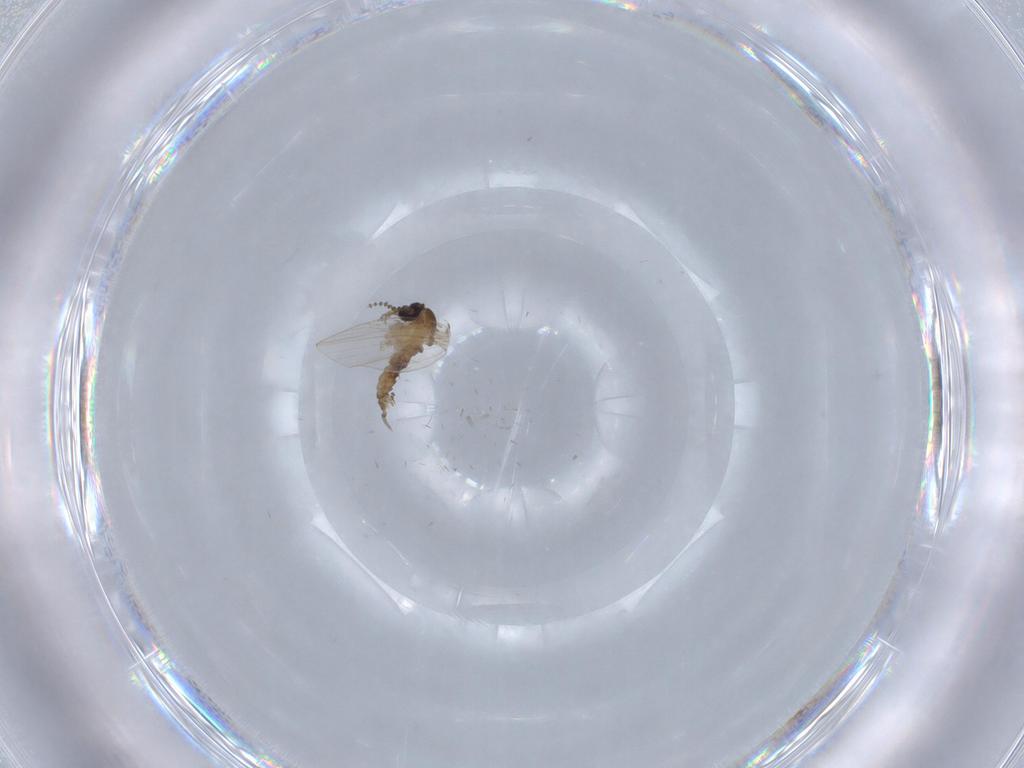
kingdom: Animalia
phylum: Arthropoda
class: Insecta
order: Diptera
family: Psychodidae
